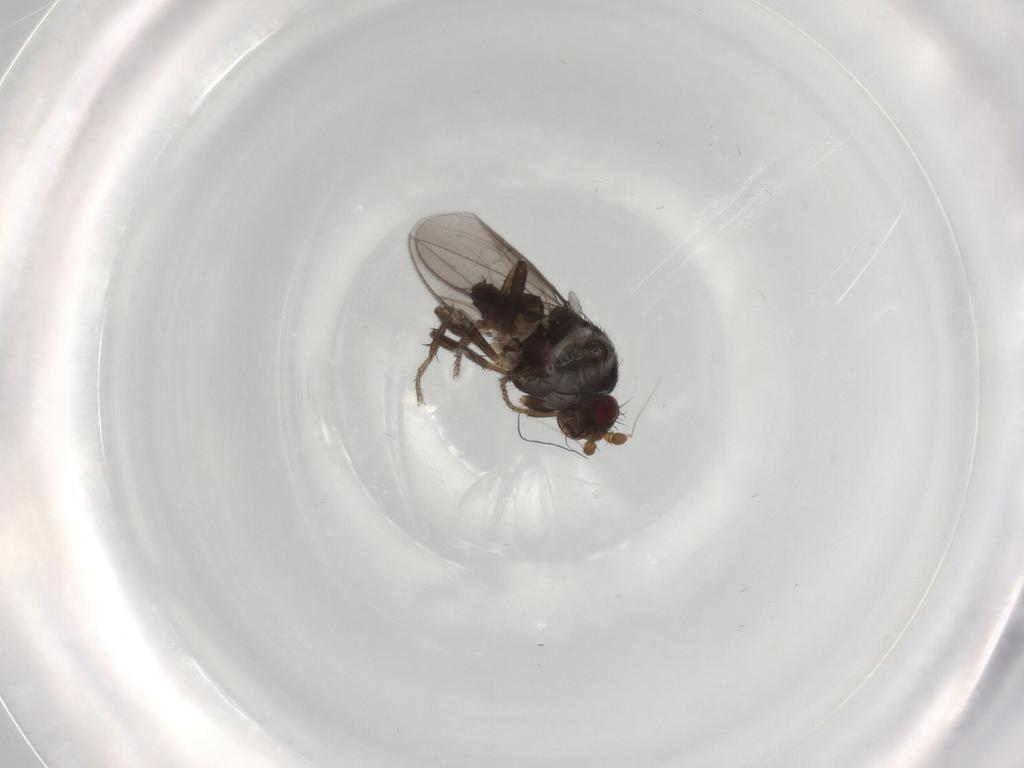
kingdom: Animalia
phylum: Arthropoda
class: Insecta
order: Diptera
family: Sphaeroceridae
